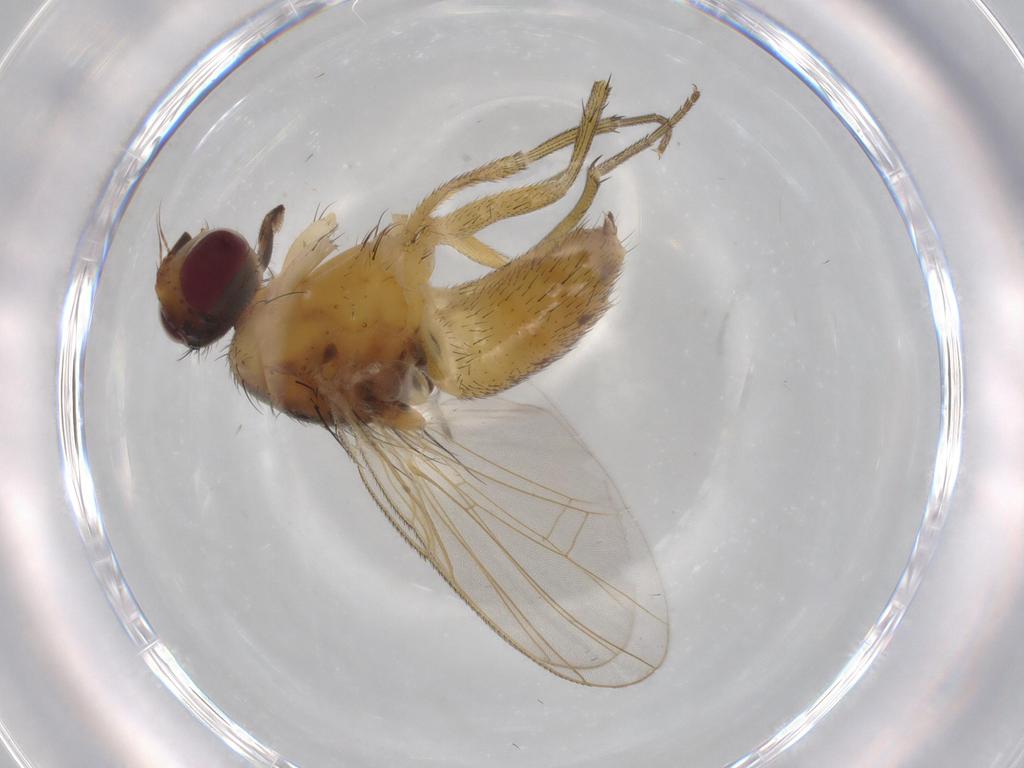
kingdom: Animalia
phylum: Arthropoda
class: Insecta
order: Diptera
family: Muscidae
